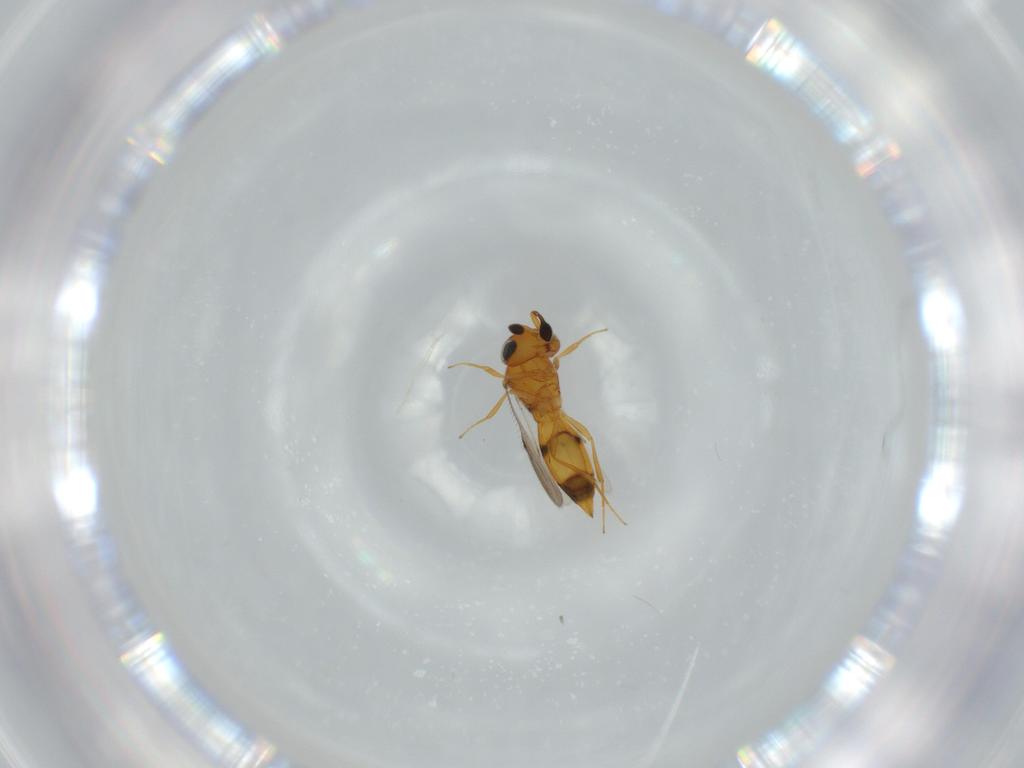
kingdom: Animalia
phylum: Arthropoda
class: Insecta
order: Hymenoptera
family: Scelionidae
